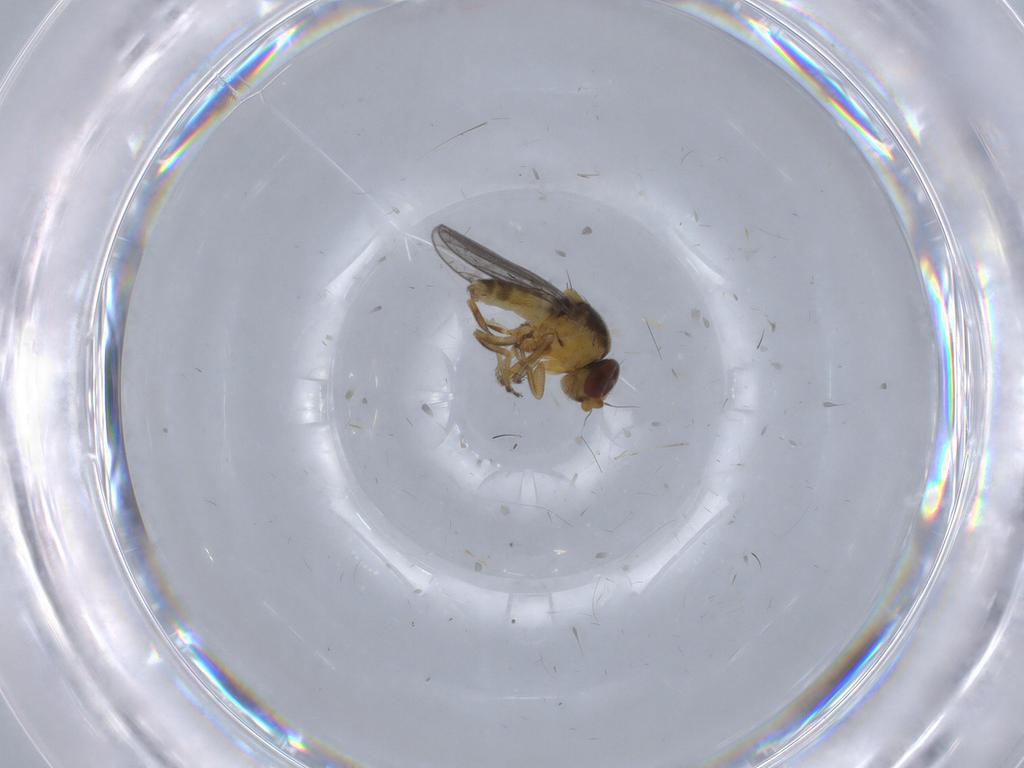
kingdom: Animalia
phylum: Arthropoda
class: Insecta
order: Diptera
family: Chloropidae
